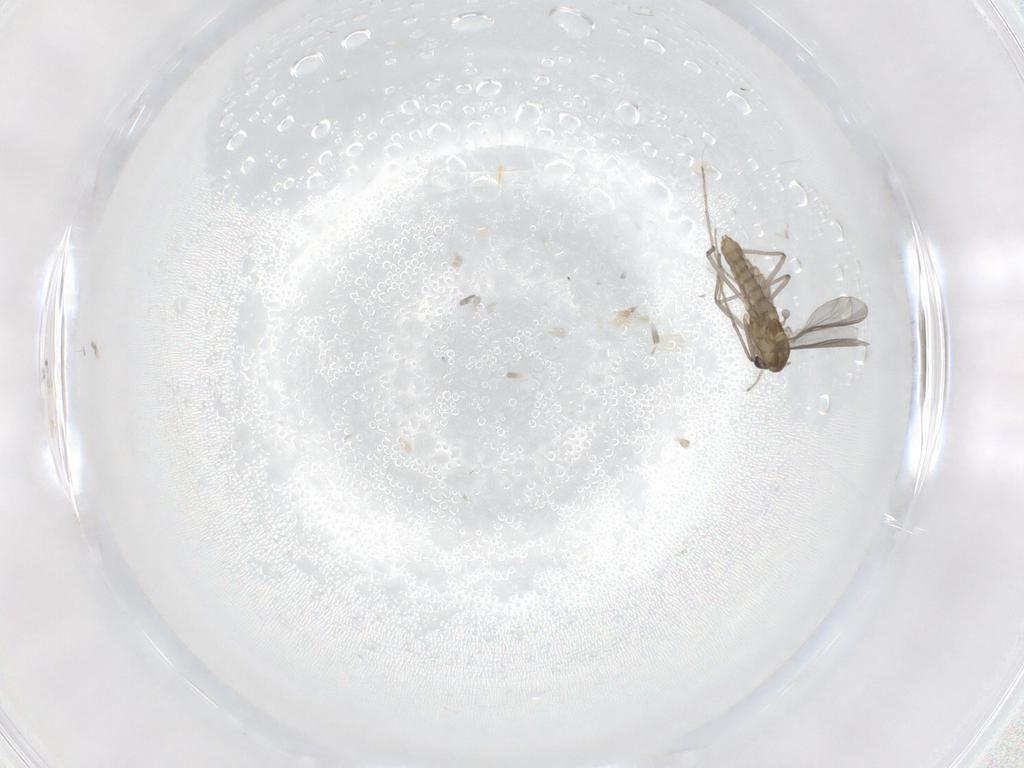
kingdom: Animalia
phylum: Arthropoda
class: Insecta
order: Diptera
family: Chironomidae
